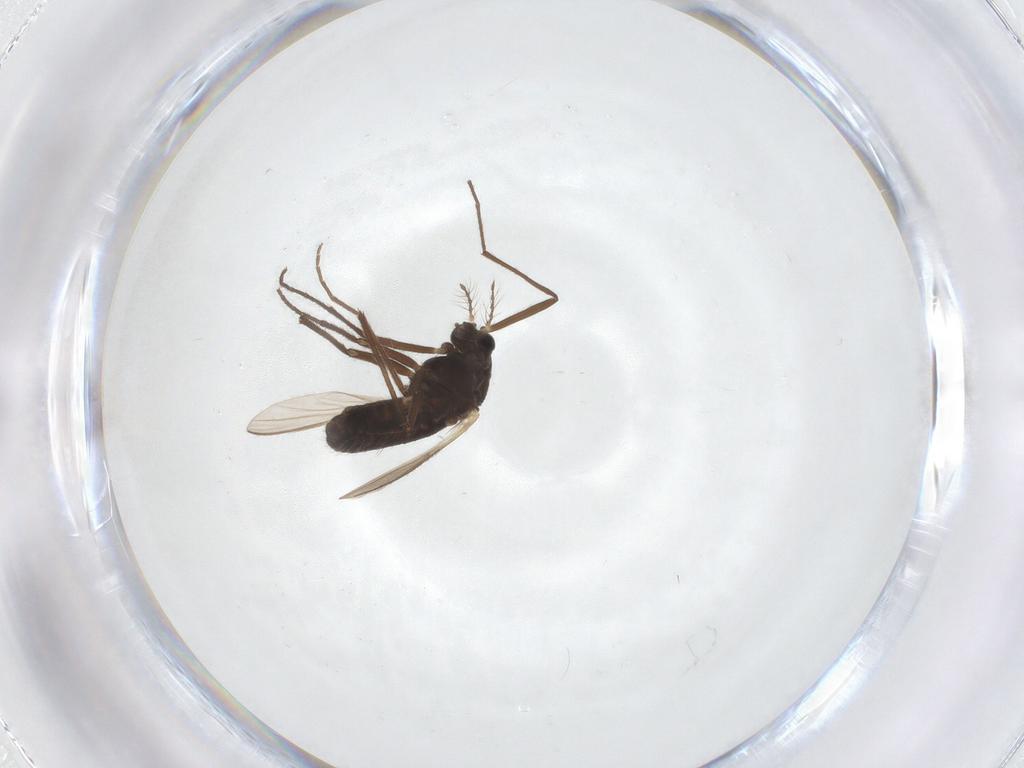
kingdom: Animalia
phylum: Arthropoda
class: Insecta
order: Diptera
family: Chironomidae
